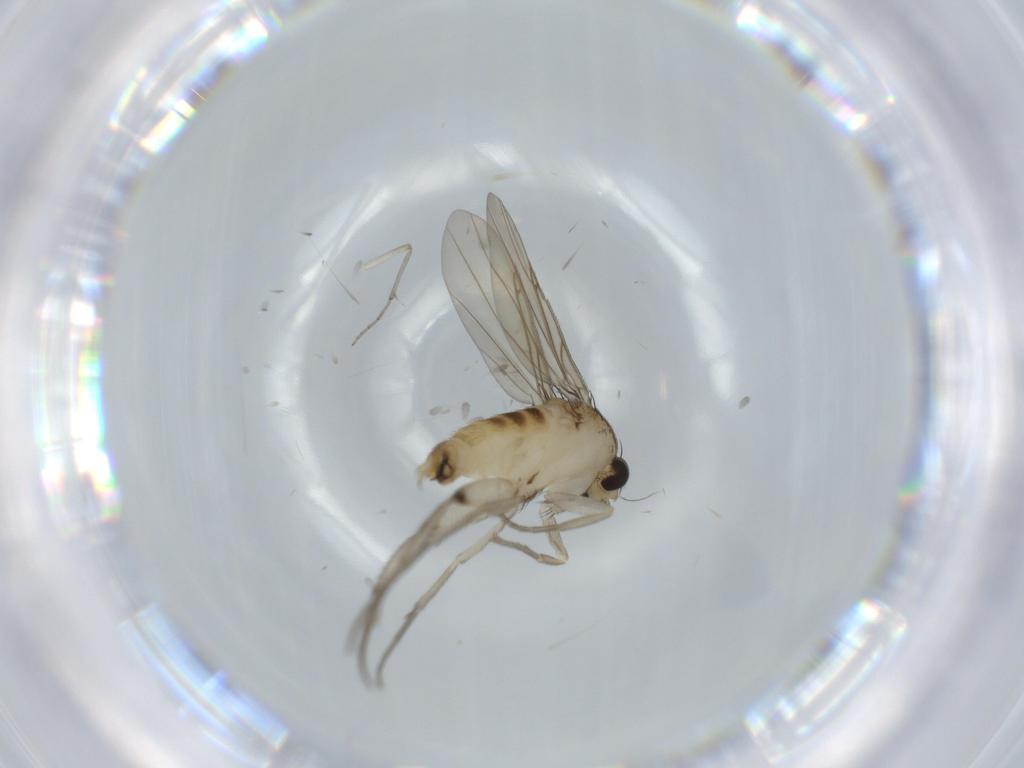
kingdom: Animalia
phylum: Arthropoda
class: Insecta
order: Diptera
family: Phoridae
